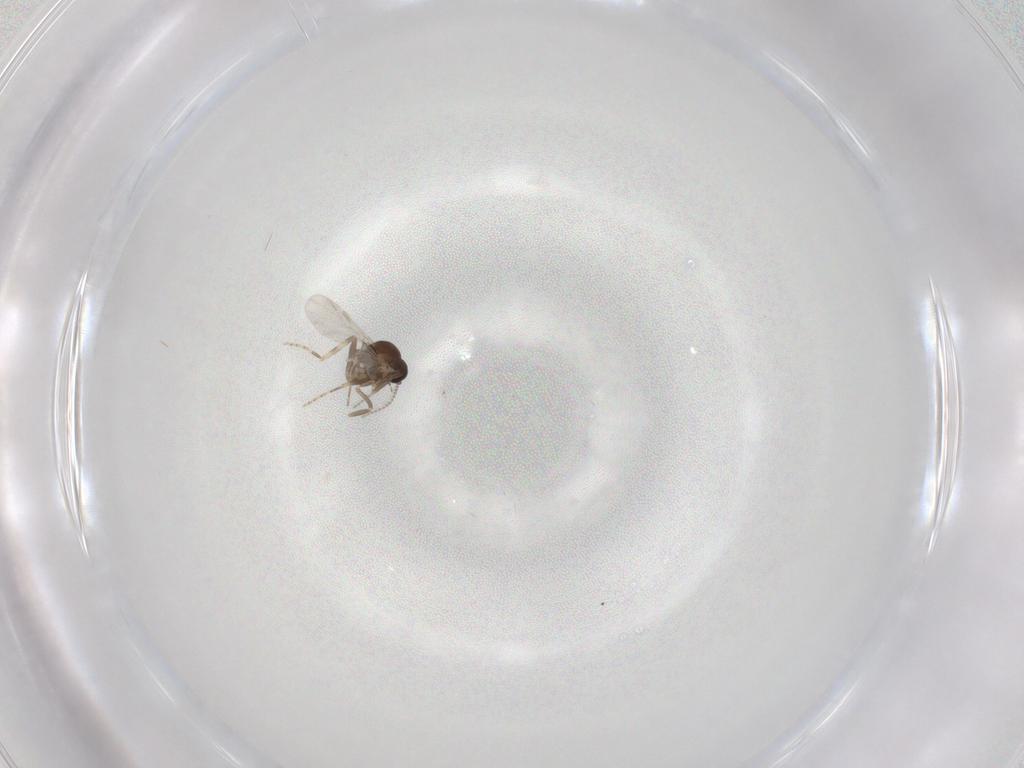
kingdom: Animalia
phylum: Arthropoda
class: Insecta
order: Diptera
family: Ceratopogonidae
